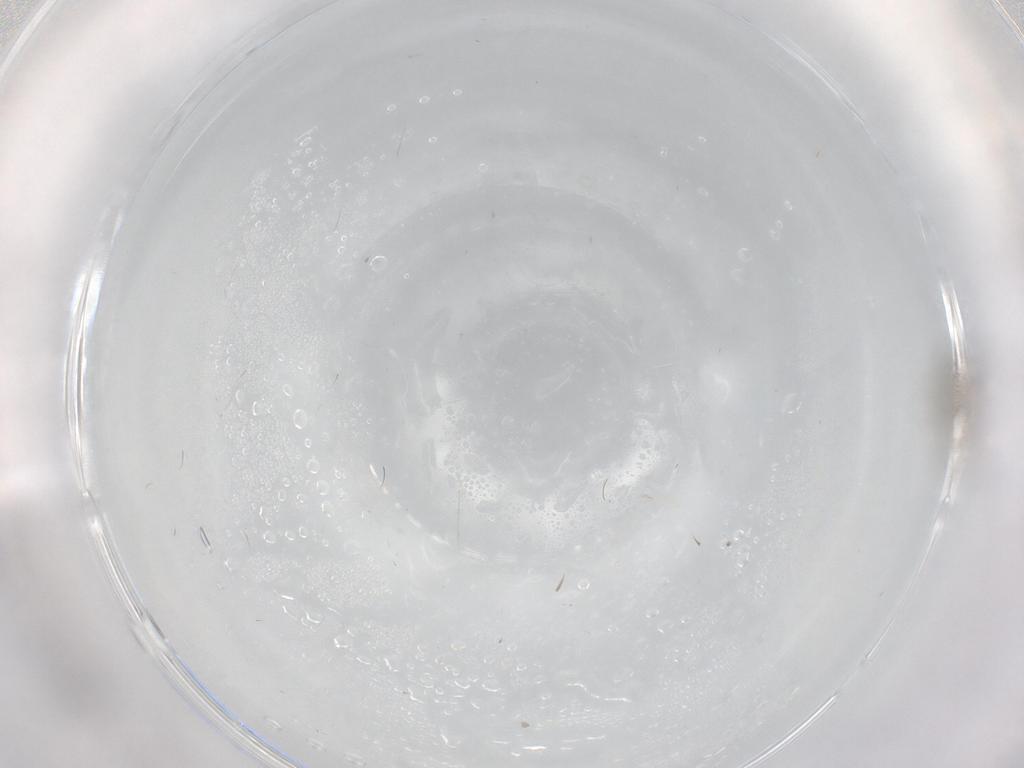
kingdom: Animalia
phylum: Arthropoda
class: Insecta
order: Diptera
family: Cecidomyiidae
